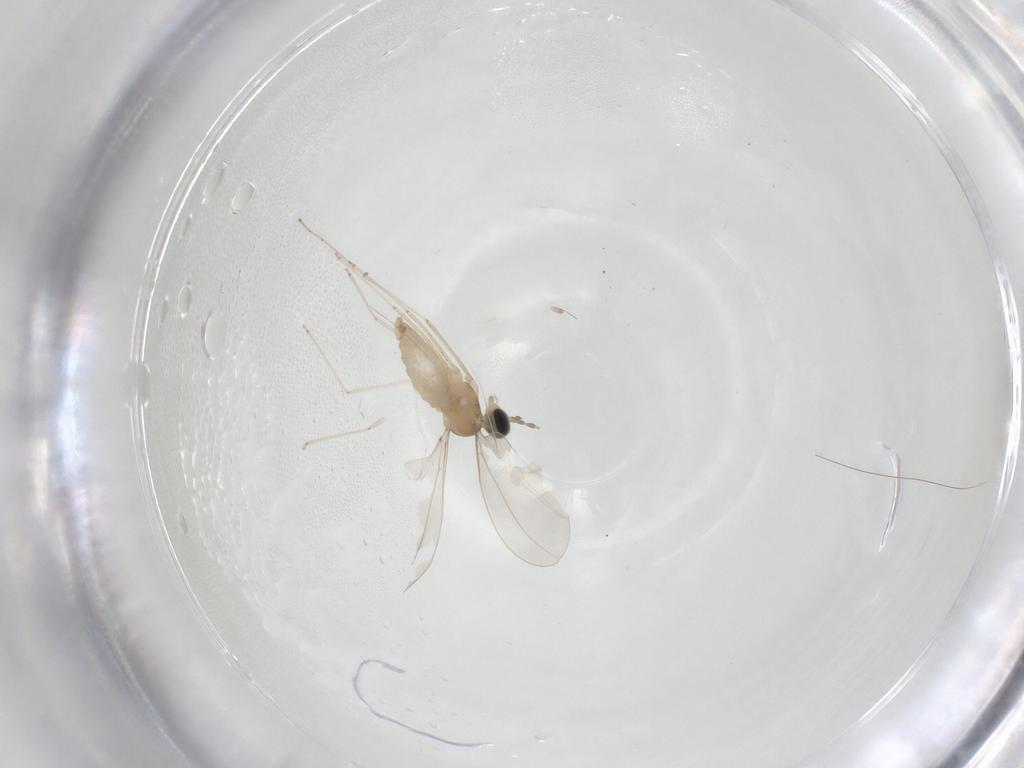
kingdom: Animalia
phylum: Arthropoda
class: Insecta
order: Diptera
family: Cecidomyiidae
